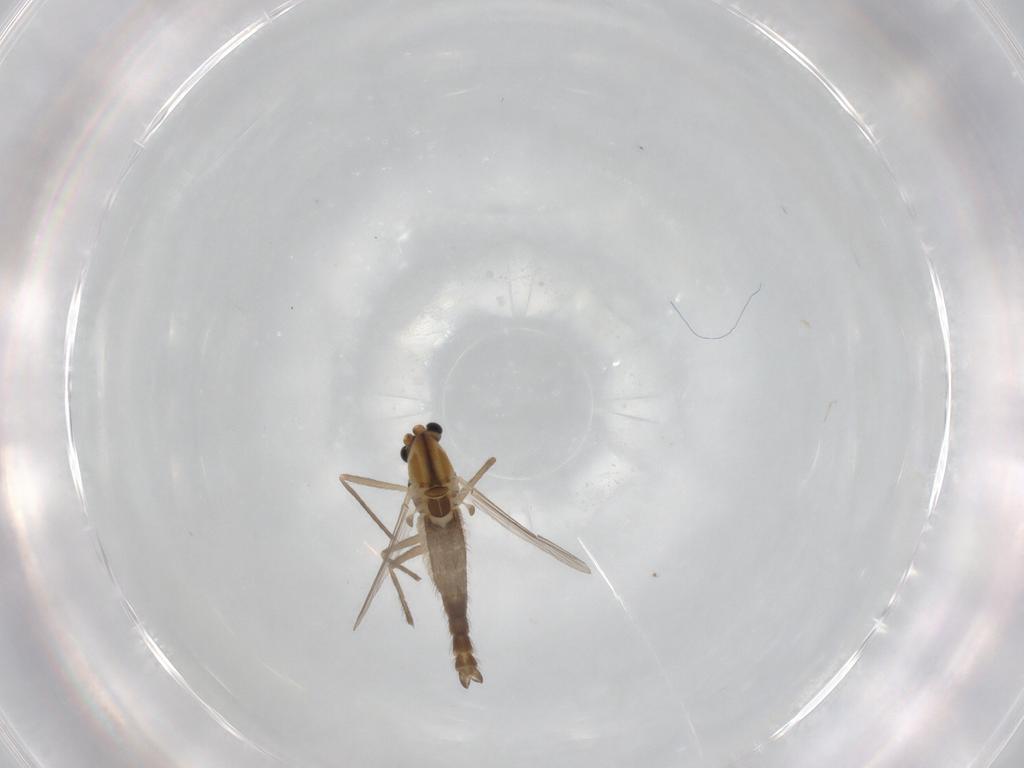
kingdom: Animalia
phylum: Arthropoda
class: Insecta
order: Diptera
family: Chironomidae
